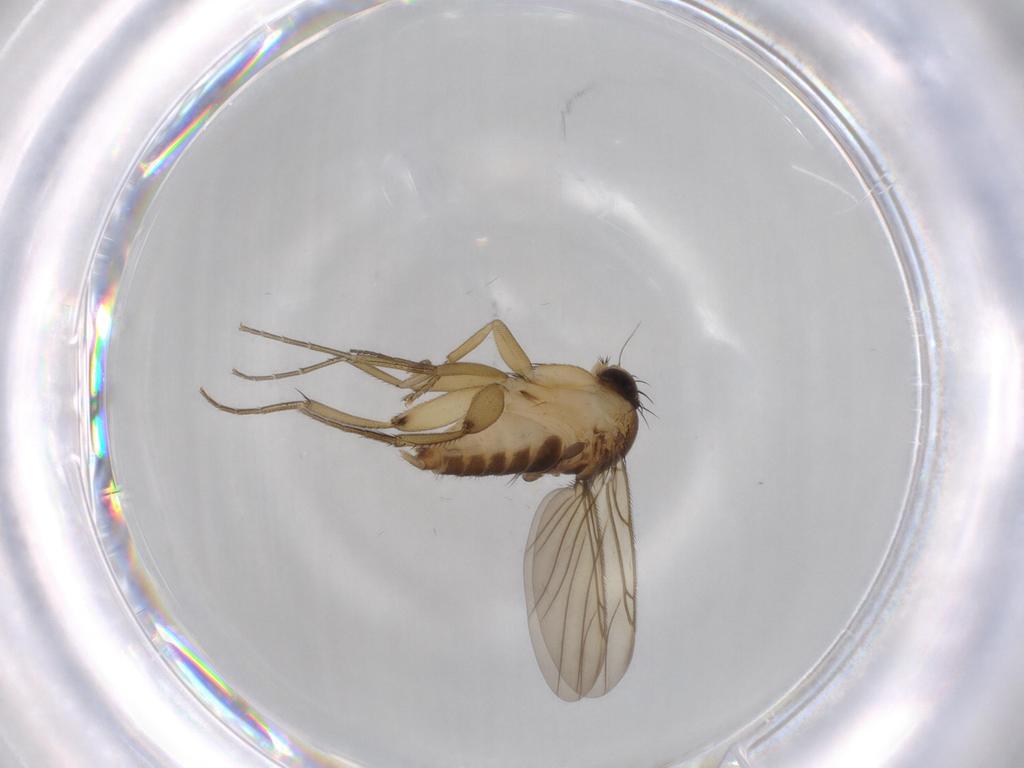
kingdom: Animalia
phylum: Arthropoda
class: Insecta
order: Diptera
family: Phoridae
